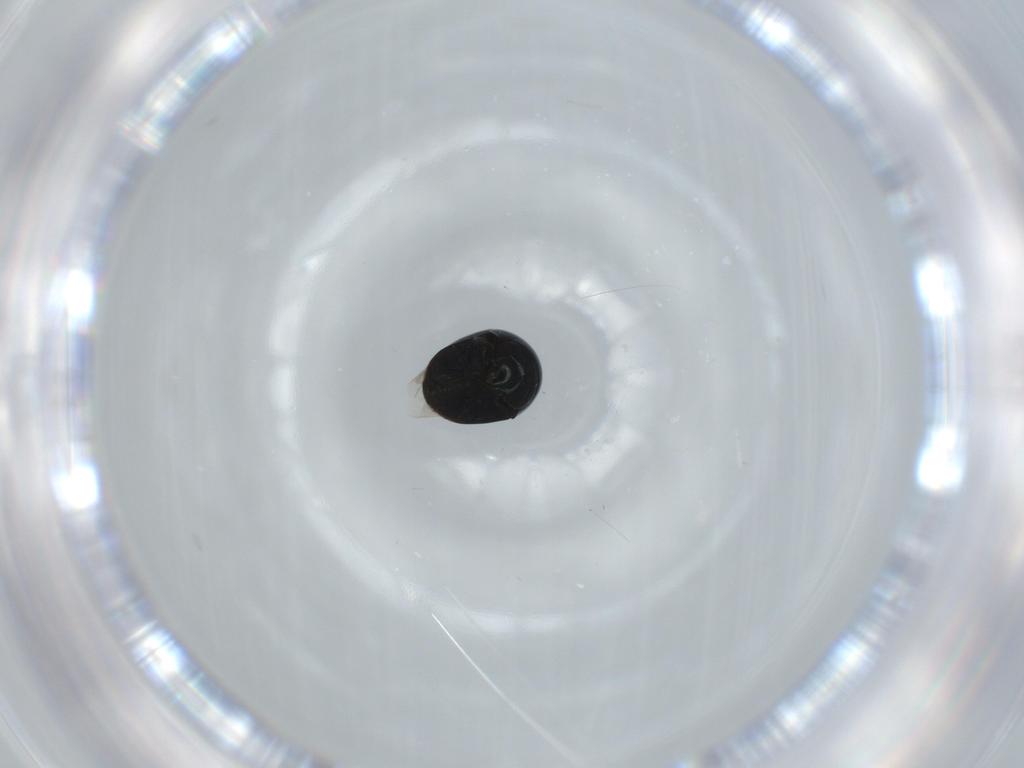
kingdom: Animalia
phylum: Arthropoda
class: Insecta
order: Coleoptera
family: Cybocephalidae
